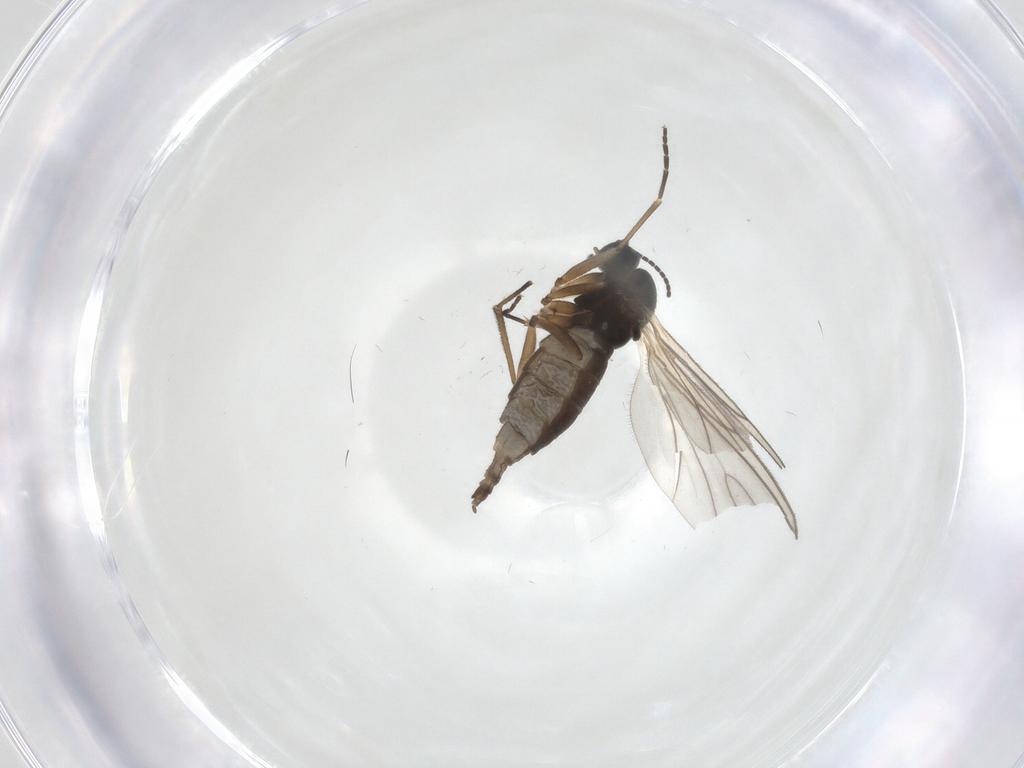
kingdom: Animalia
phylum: Arthropoda
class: Insecta
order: Diptera
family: Sciaridae
